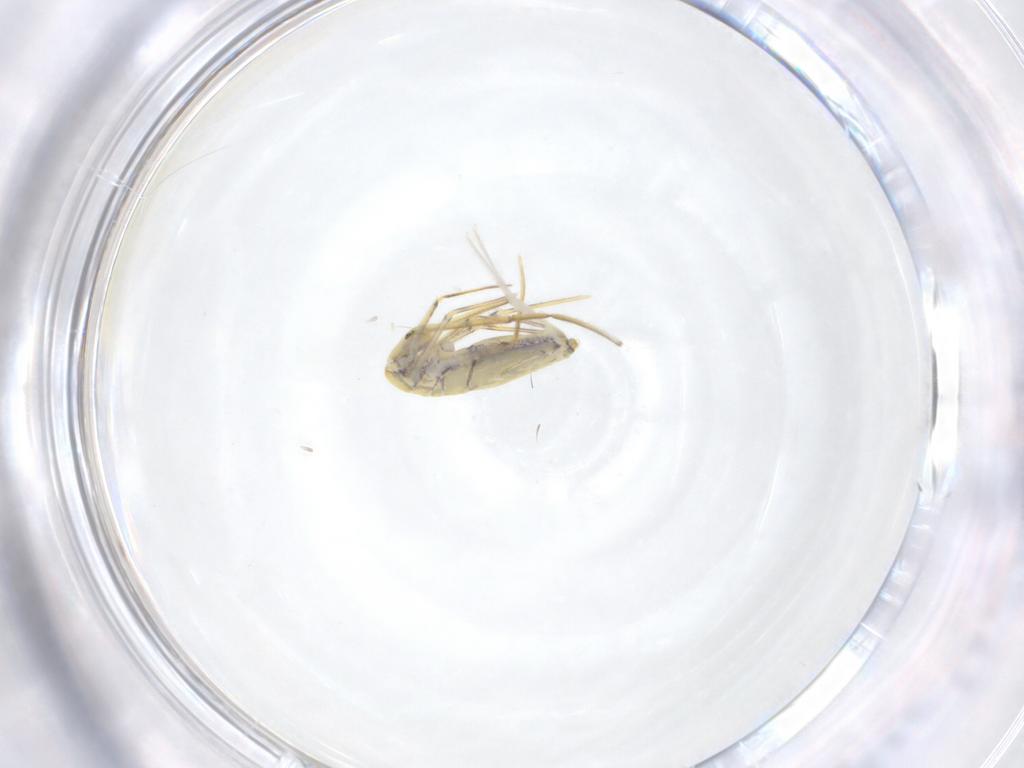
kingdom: Animalia
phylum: Arthropoda
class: Collembola
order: Entomobryomorpha
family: Entomobryidae
